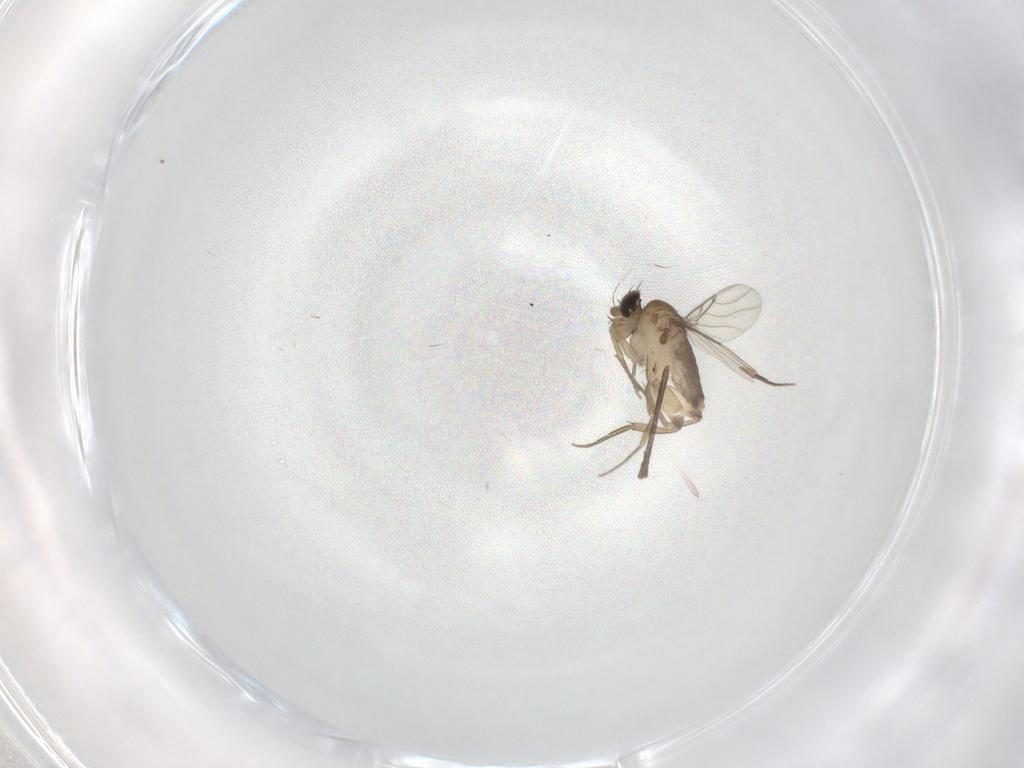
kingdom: Animalia
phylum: Arthropoda
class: Insecta
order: Diptera
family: Phoridae
